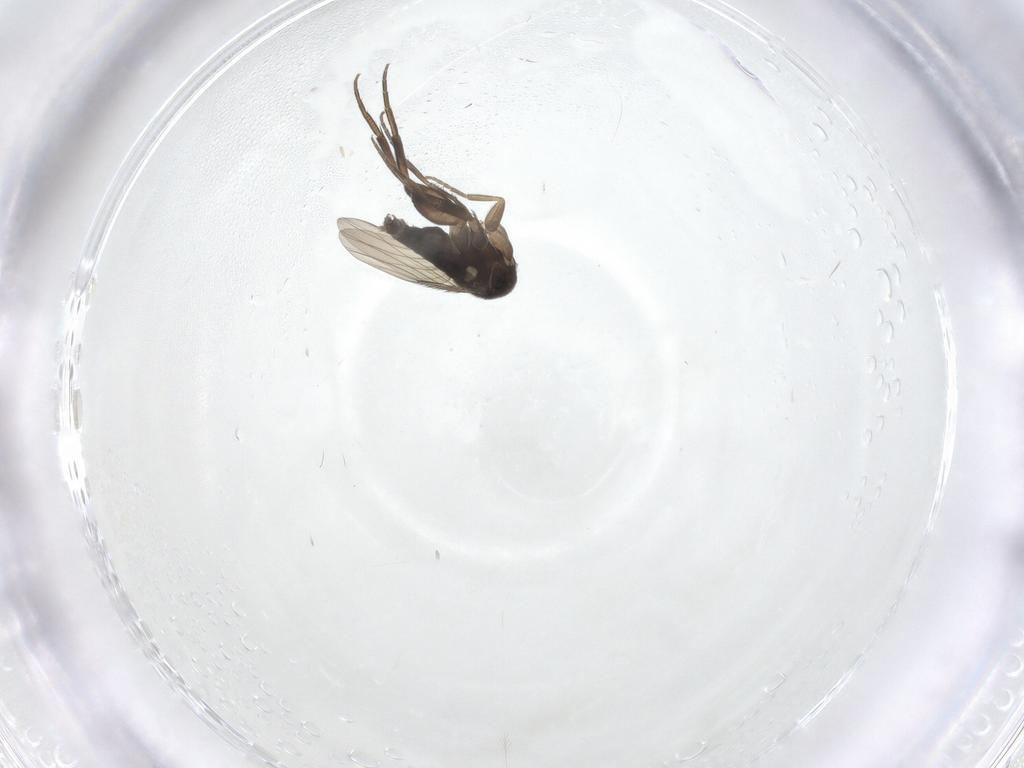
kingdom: Animalia
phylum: Arthropoda
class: Insecta
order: Diptera
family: Phoridae
